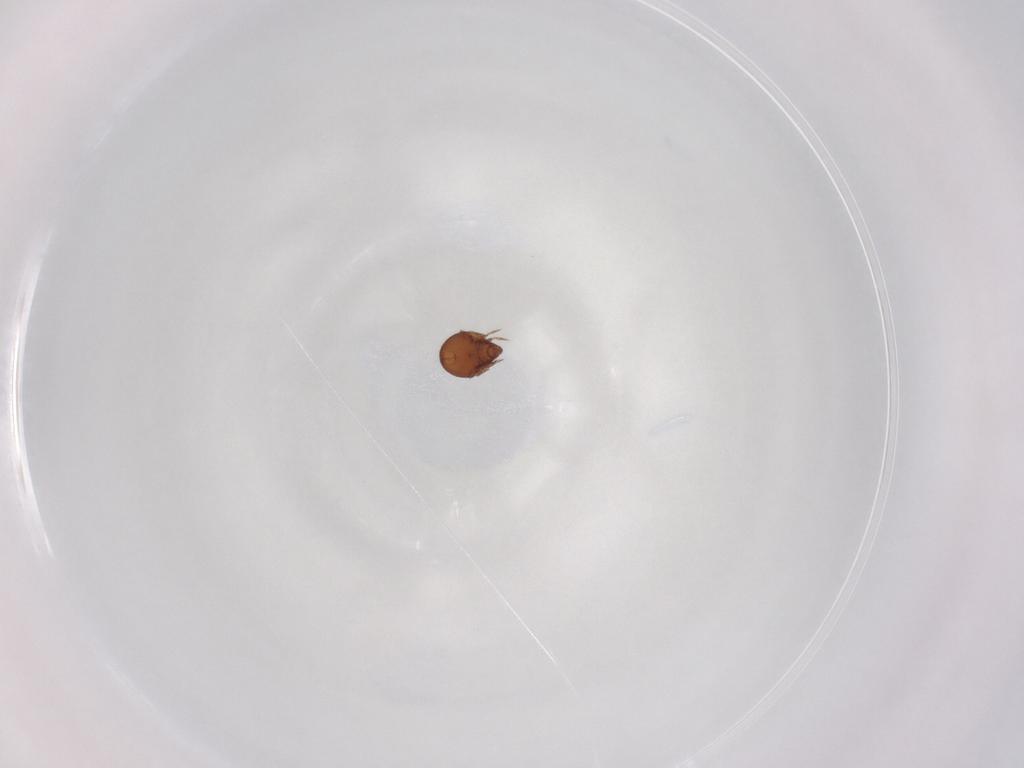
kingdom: Animalia
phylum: Arthropoda
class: Arachnida
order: Sarcoptiformes
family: Haplozetidae
